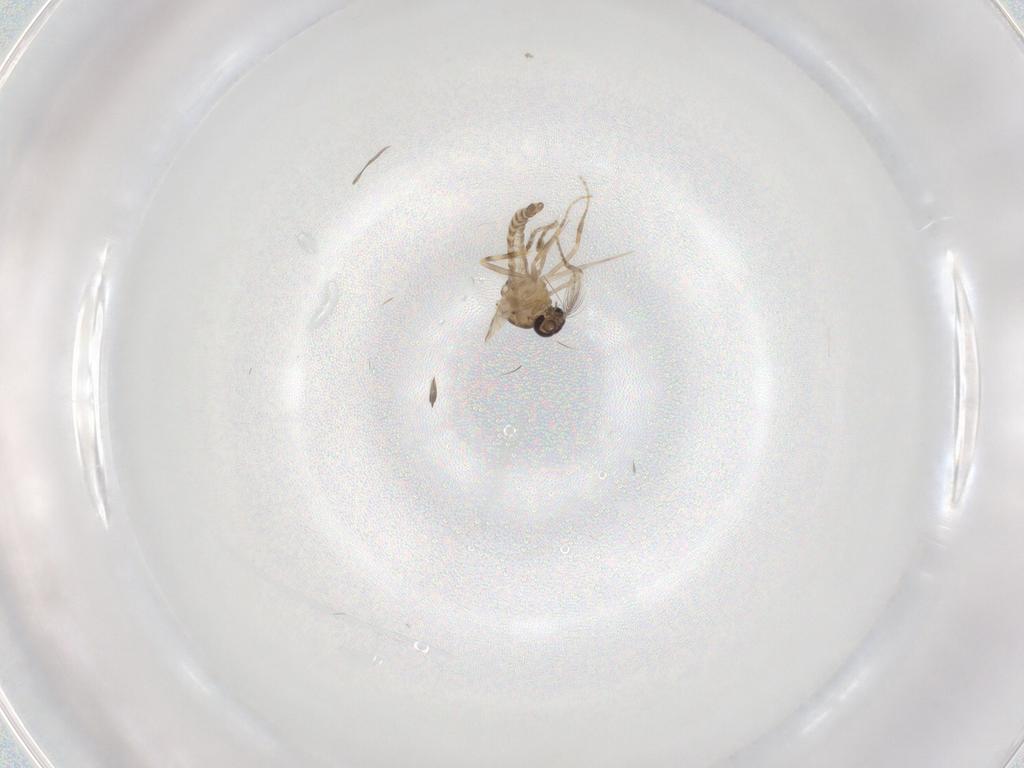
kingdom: Animalia
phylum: Arthropoda
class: Insecta
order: Diptera
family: Ceratopogonidae
